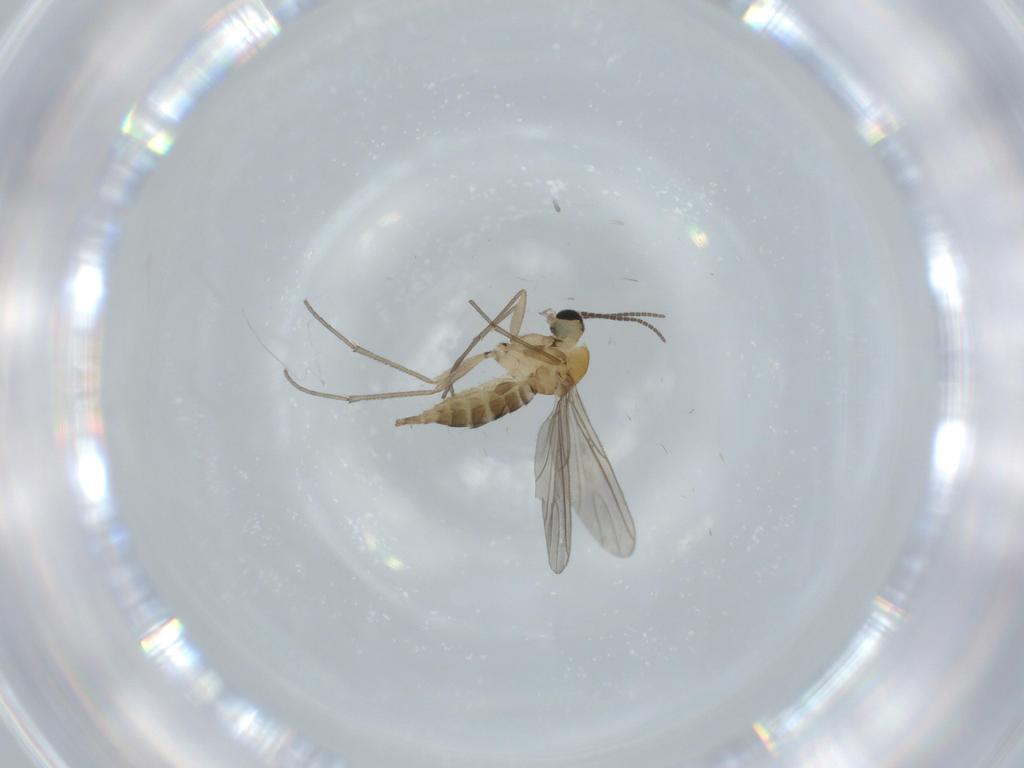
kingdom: Animalia
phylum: Arthropoda
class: Insecta
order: Diptera
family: Sciaridae
